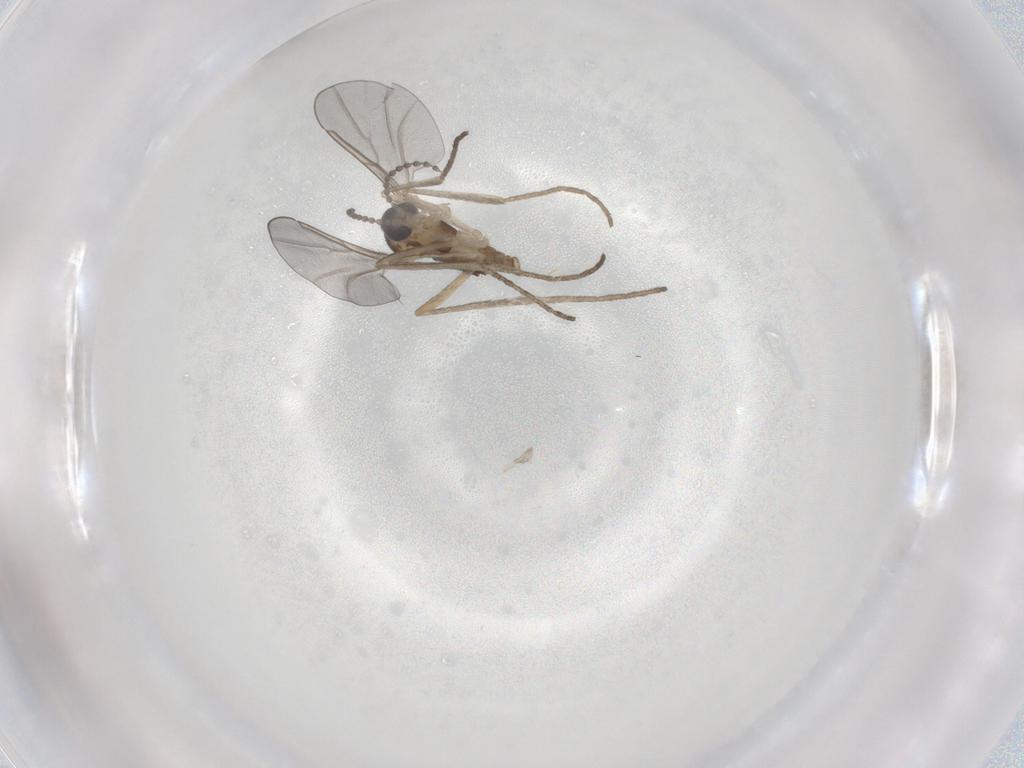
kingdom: Animalia
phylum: Arthropoda
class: Insecta
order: Diptera
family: Cecidomyiidae
